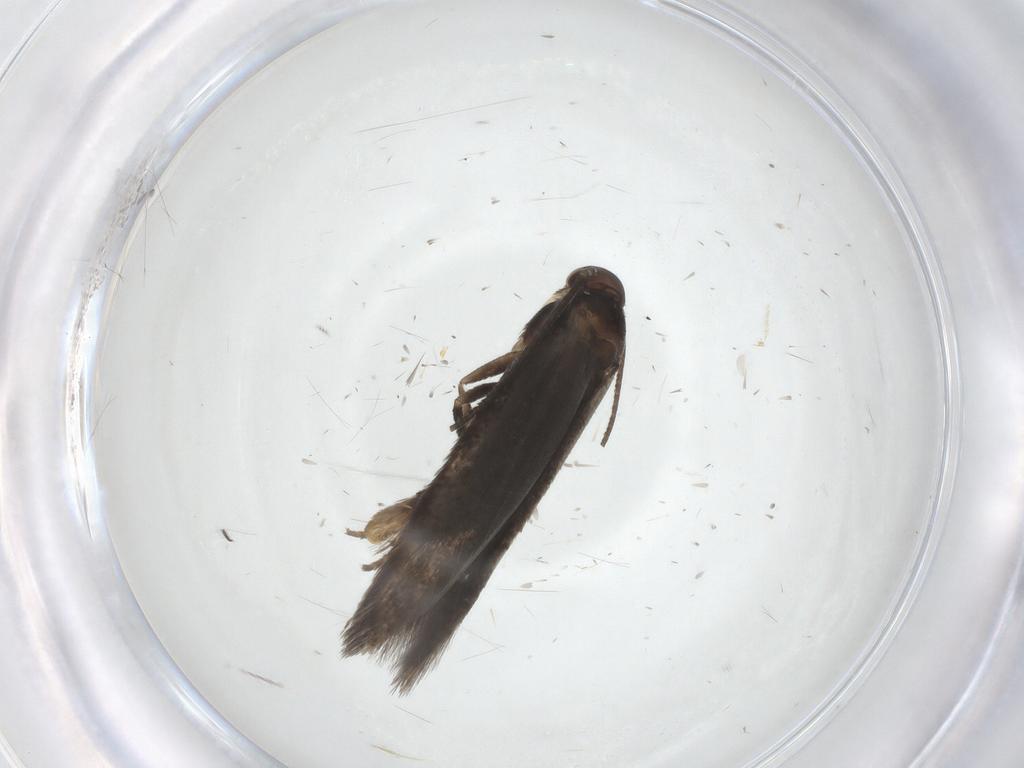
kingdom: Animalia
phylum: Arthropoda
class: Insecta
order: Lepidoptera
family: Elachistidae
